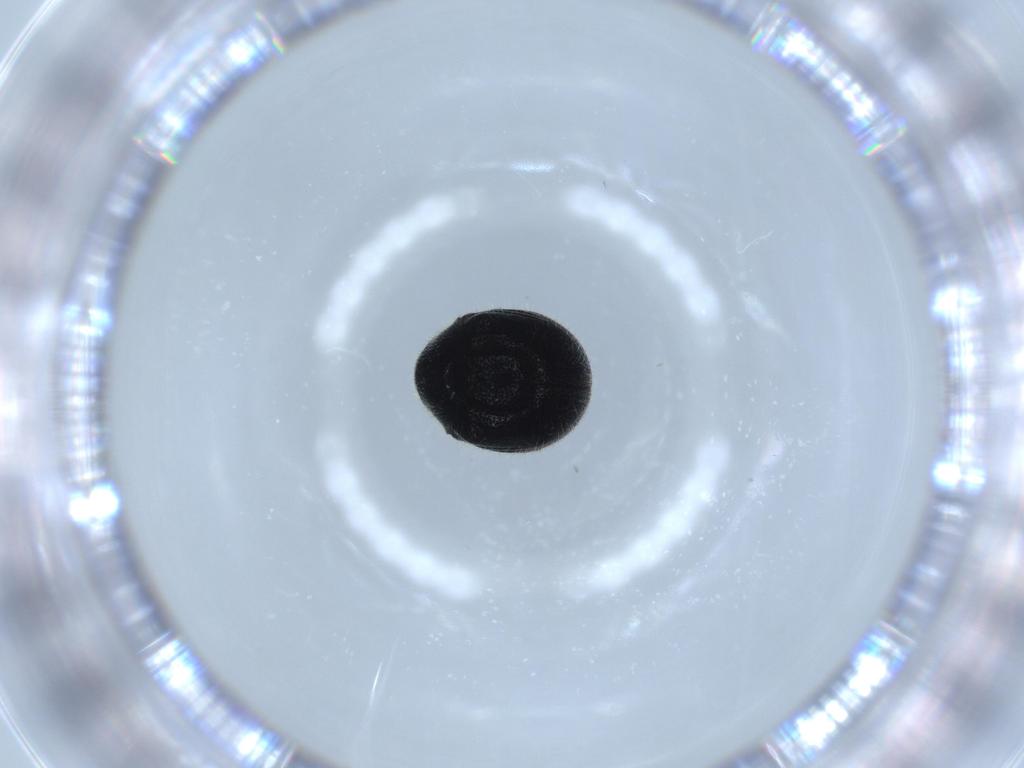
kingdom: Animalia
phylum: Arthropoda
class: Insecta
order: Coleoptera
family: Ptinidae
